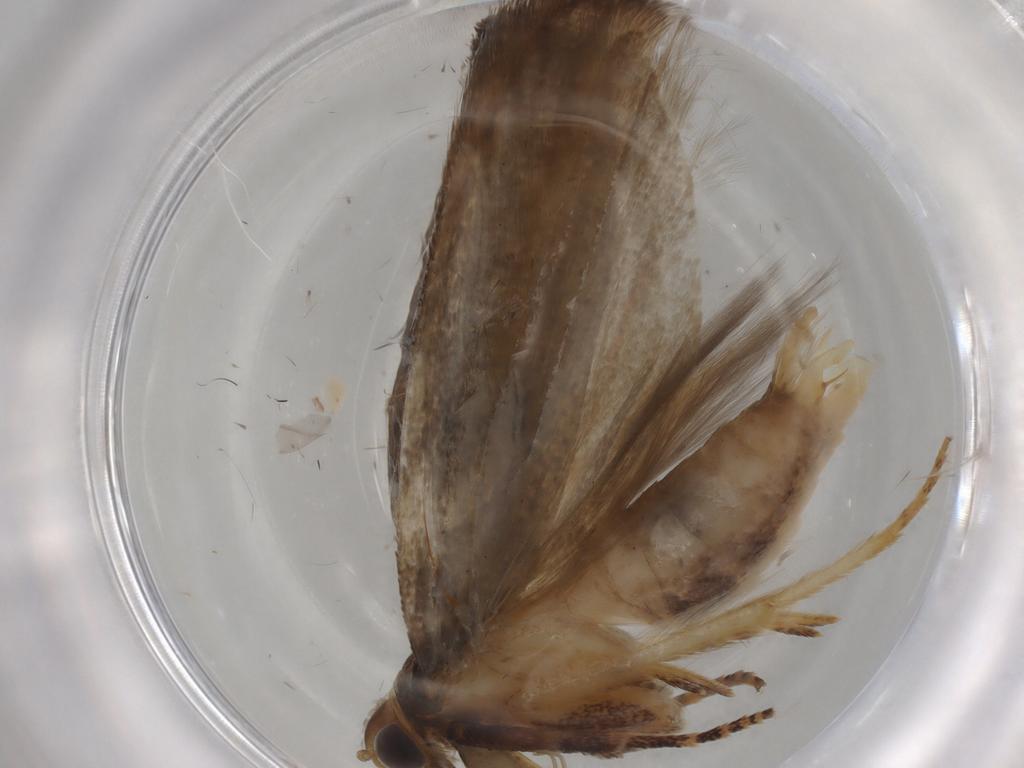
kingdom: Animalia
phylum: Arthropoda
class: Insecta
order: Lepidoptera
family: Gelechiidae
